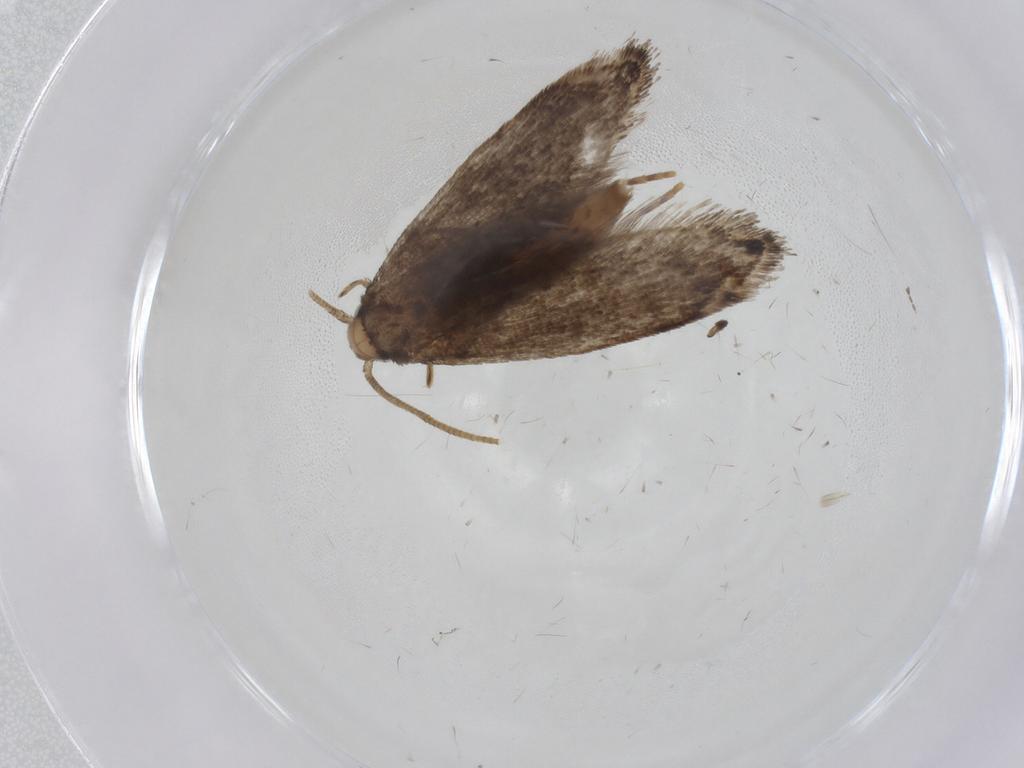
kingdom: Animalia
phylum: Arthropoda
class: Insecta
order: Lepidoptera
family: Tineidae
